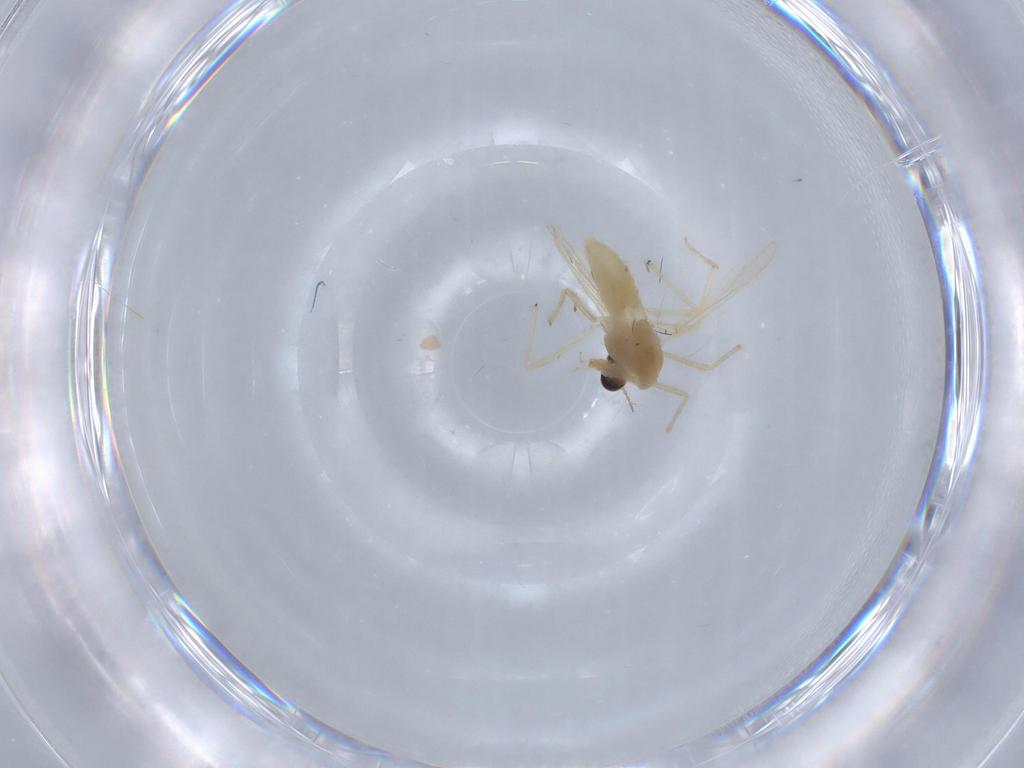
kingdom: Animalia
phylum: Arthropoda
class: Insecta
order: Diptera
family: Chironomidae
